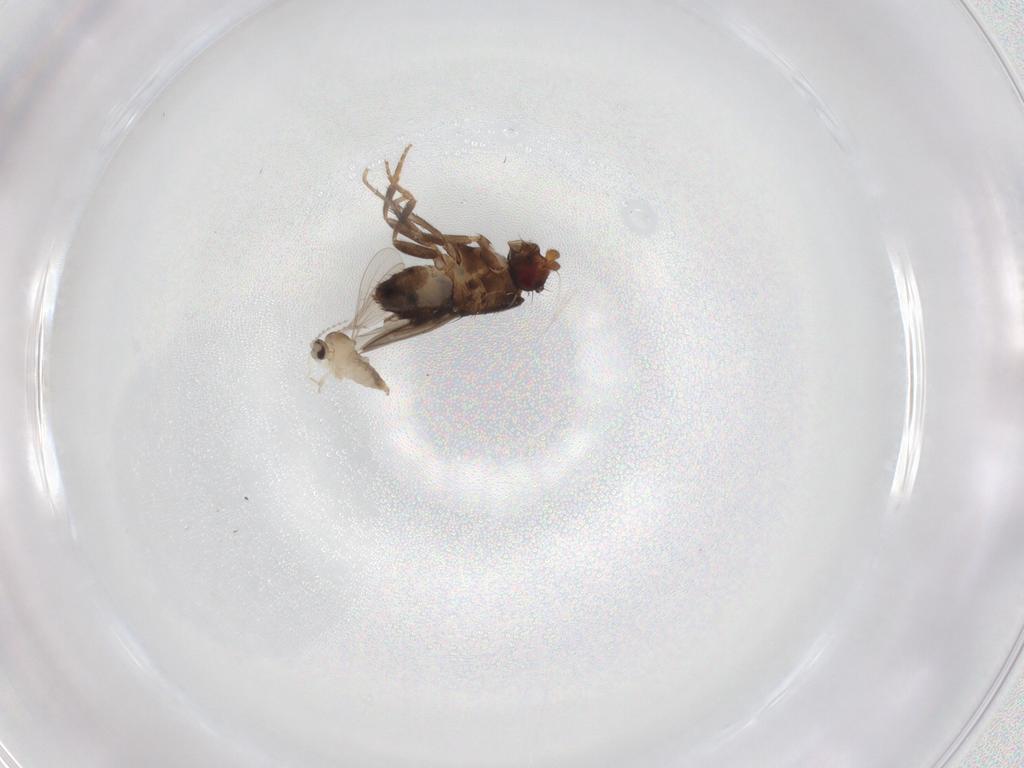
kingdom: Animalia
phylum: Arthropoda
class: Insecta
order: Diptera
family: Sphaeroceridae
